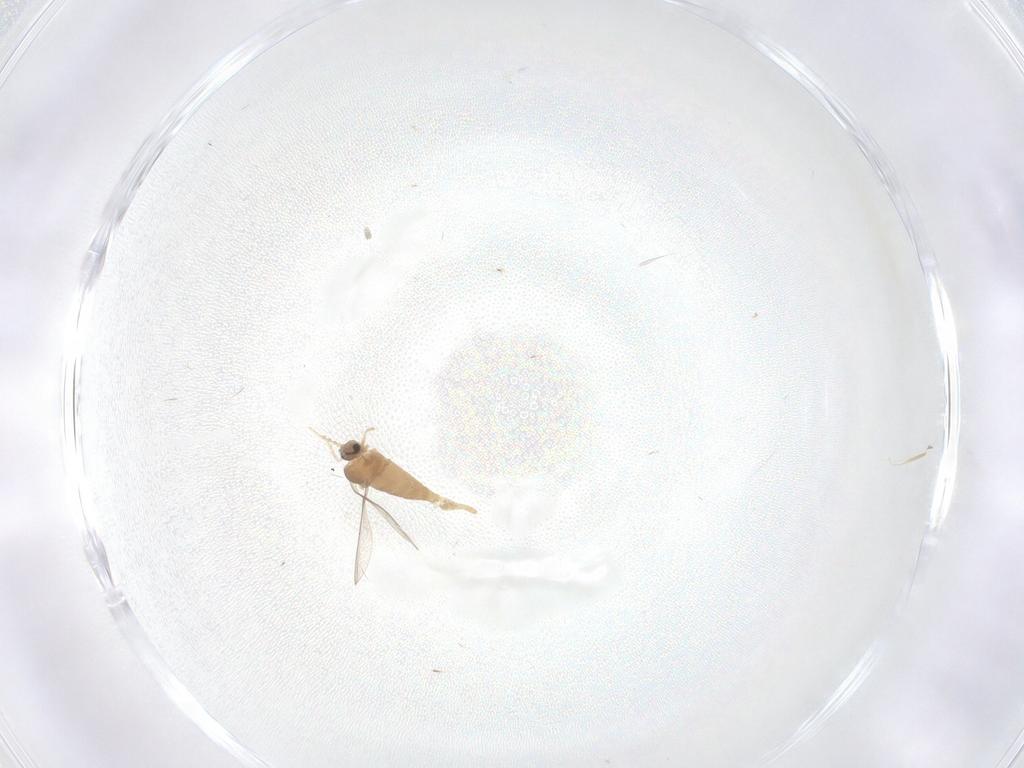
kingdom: Animalia
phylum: Arthropoda
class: Insecta
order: Diptera
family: Cecidomyiidae
